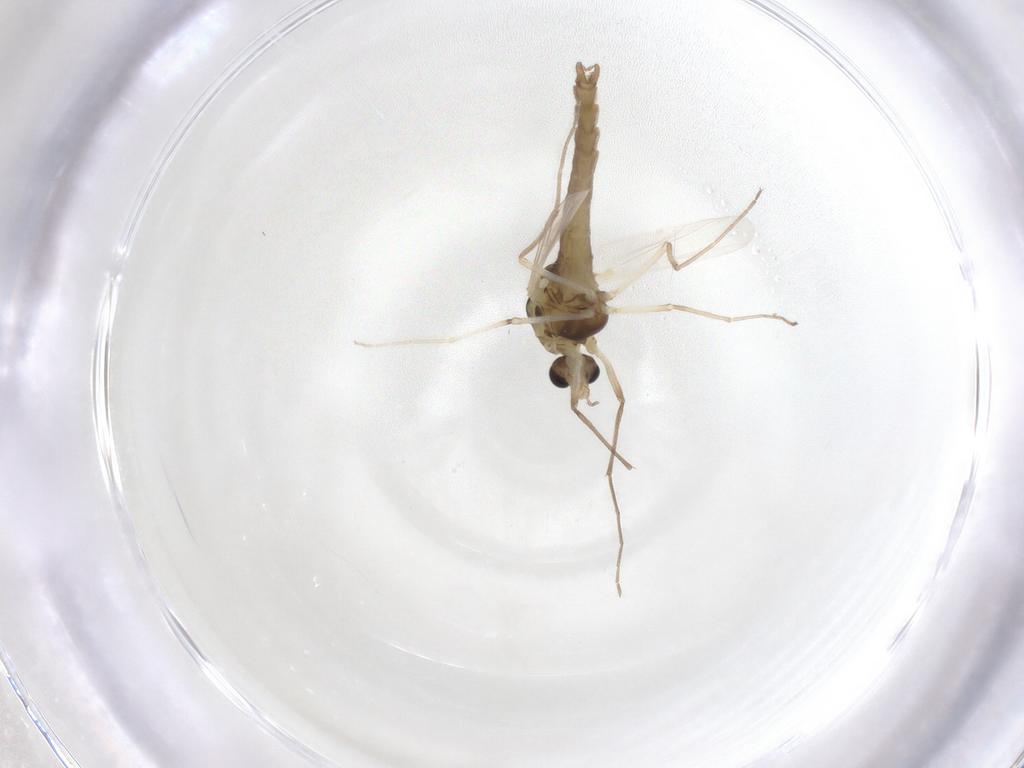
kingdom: Animalia
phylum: Arthropoda
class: Insecta
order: Diptera
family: Chironomidae
